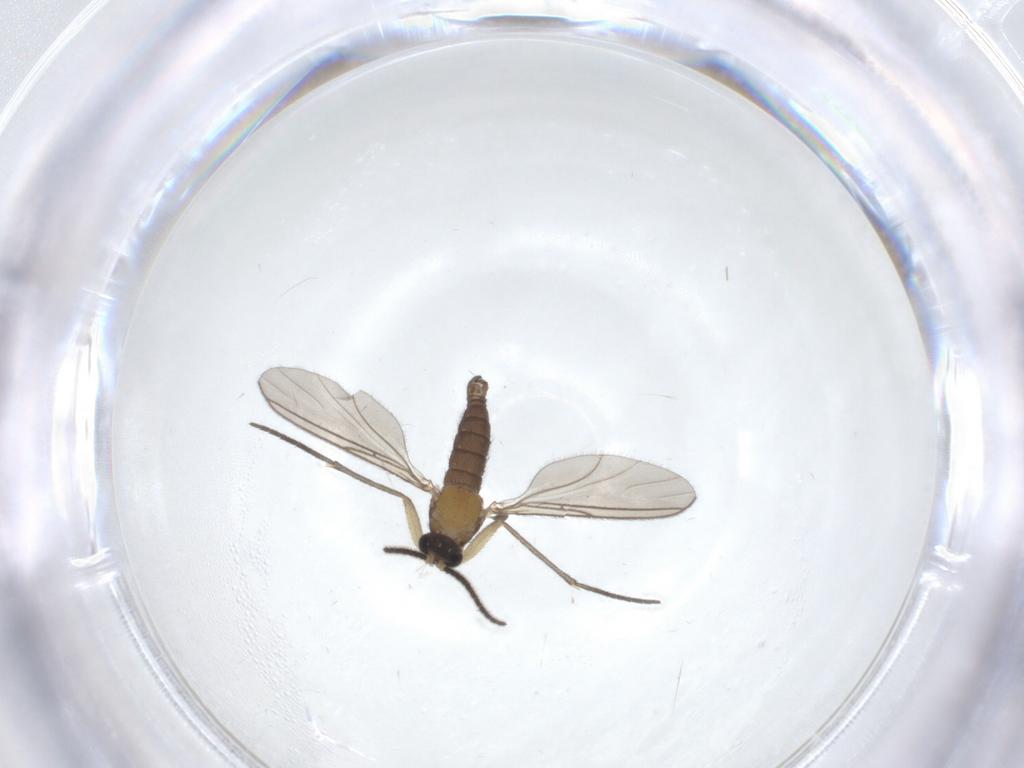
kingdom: Animalia
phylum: Arthropoda
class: Insecta
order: Diptera
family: Sciaridae
